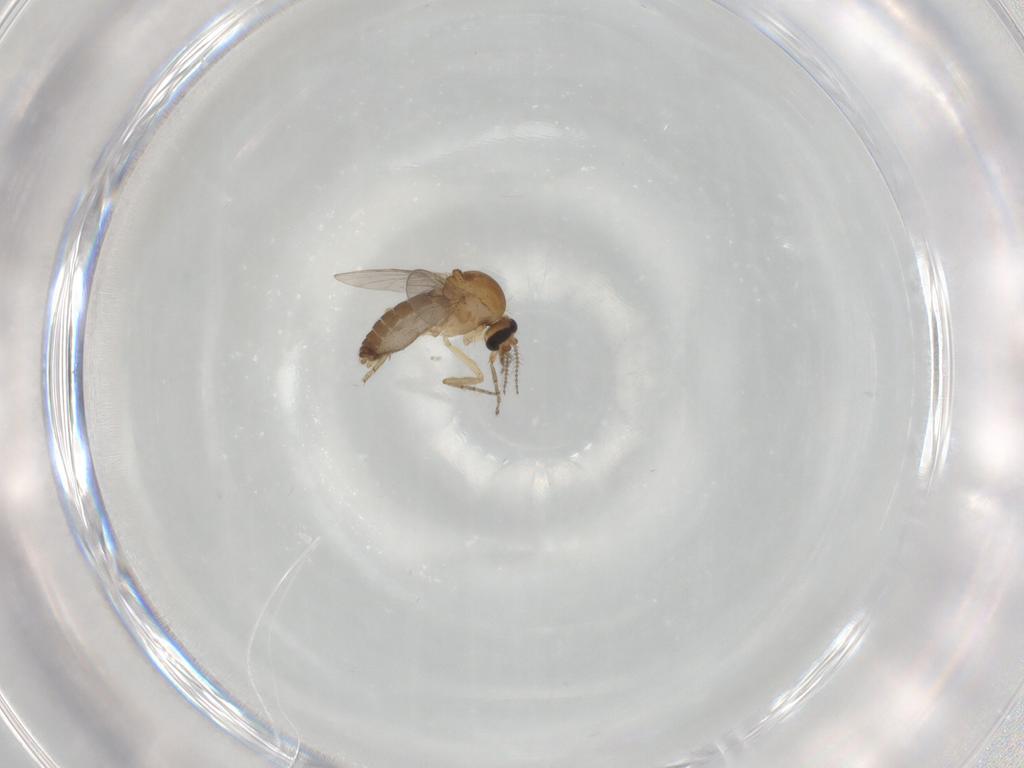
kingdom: Animalia
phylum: Arthropoda
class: Insecta
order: Diptera
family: Ceratopogonidae
